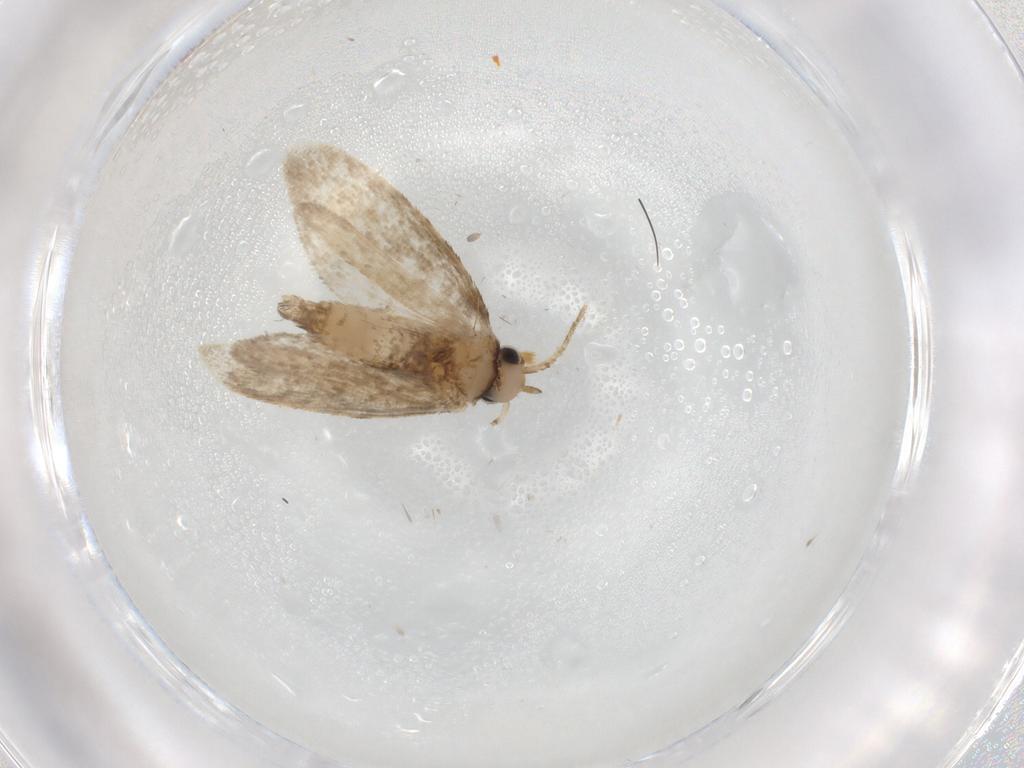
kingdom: Animalia
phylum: Arthropoda
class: Insecta
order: Lepidoptera
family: Psychidae
